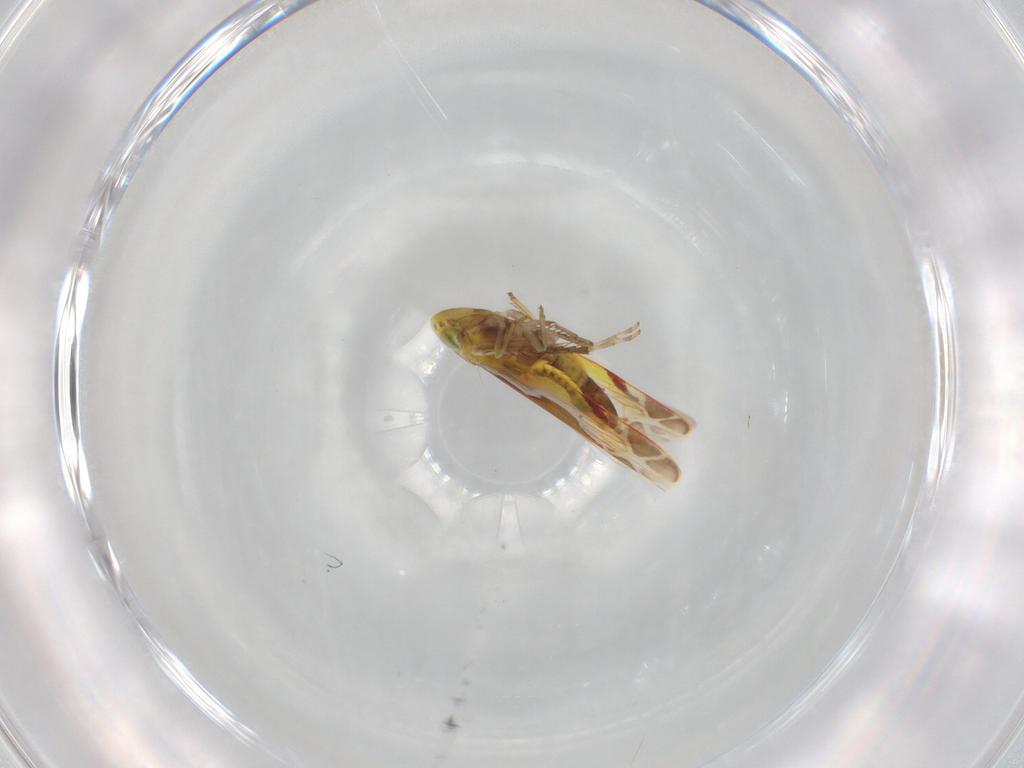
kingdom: Animalia
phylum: Arthropoda
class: Insecta
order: Hemiptera
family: Cicadellidae
